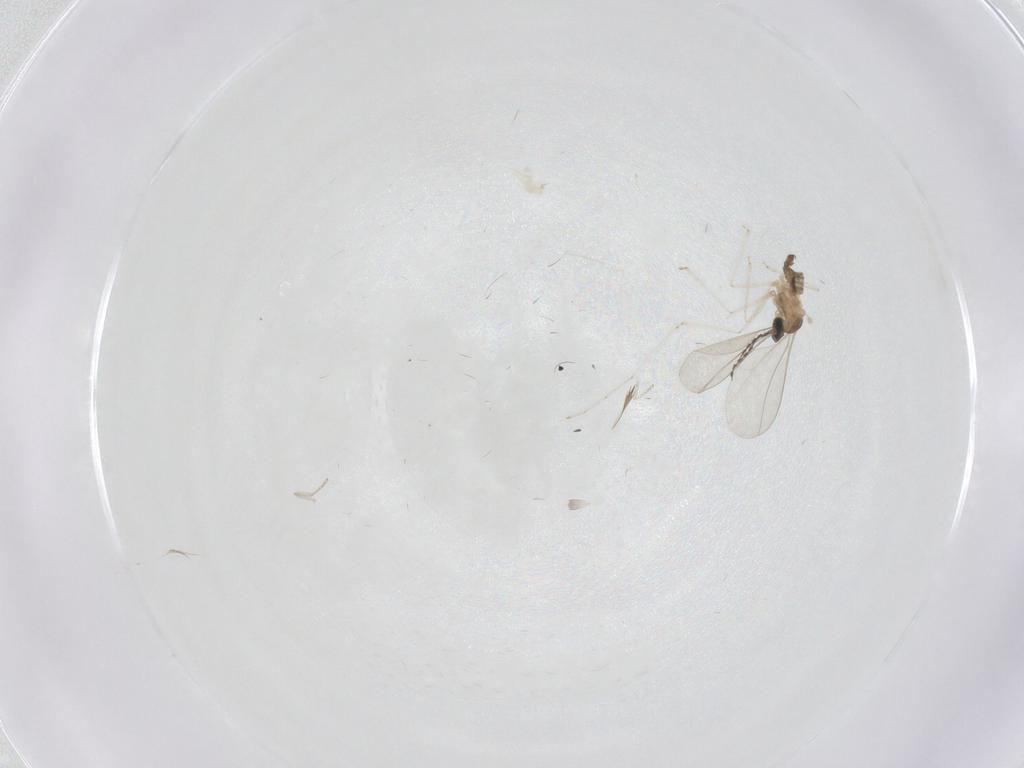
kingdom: Animalia
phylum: Arthropoda
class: Insecta
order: Diptera
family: Cecidomyiidae
